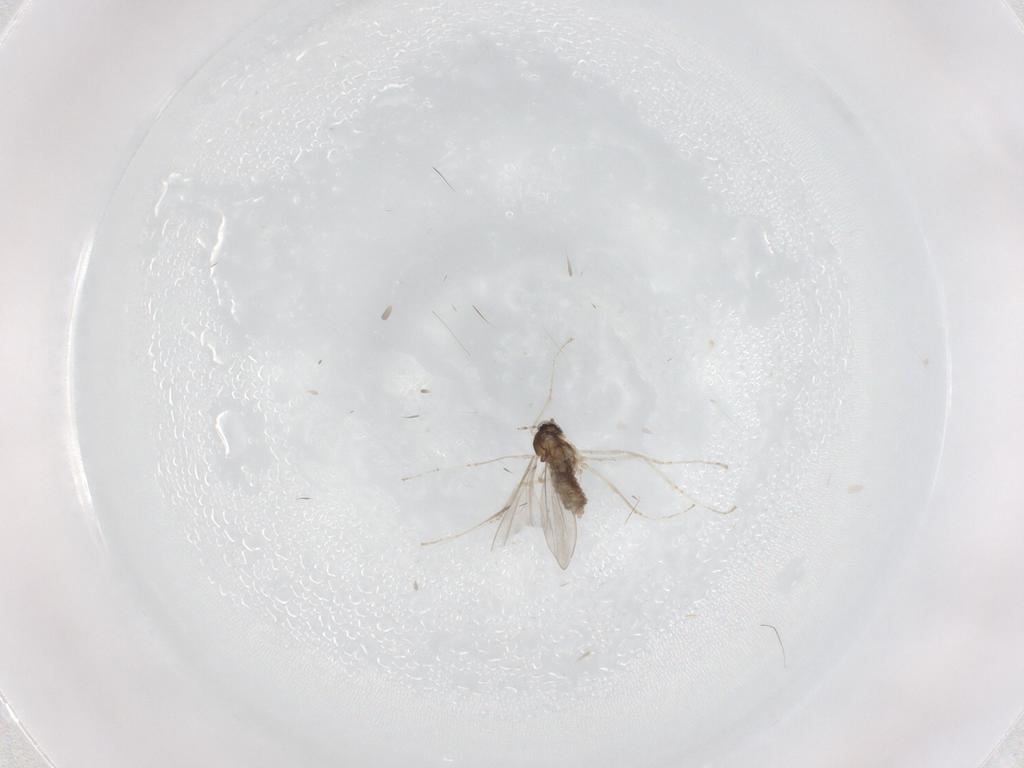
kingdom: Animalia
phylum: Arthropoda
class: Insecta
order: Diptera
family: Cecidomyiidae
